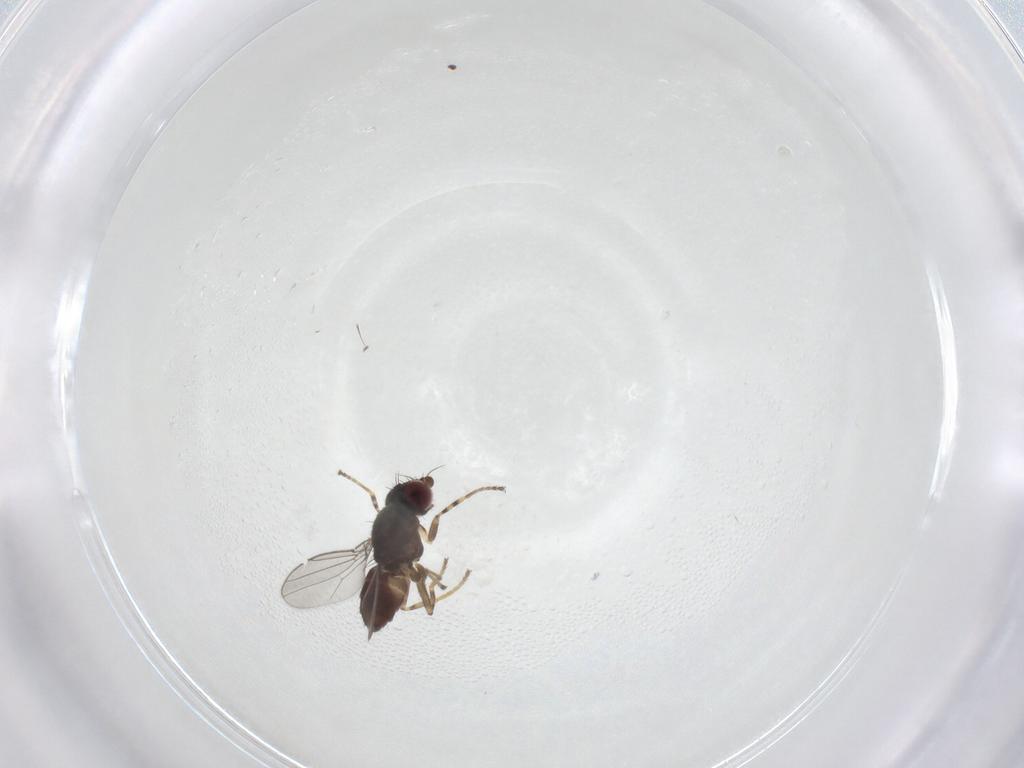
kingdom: Animalia
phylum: Arthropoda
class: Insecta
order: Diptera
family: Chloropidae
